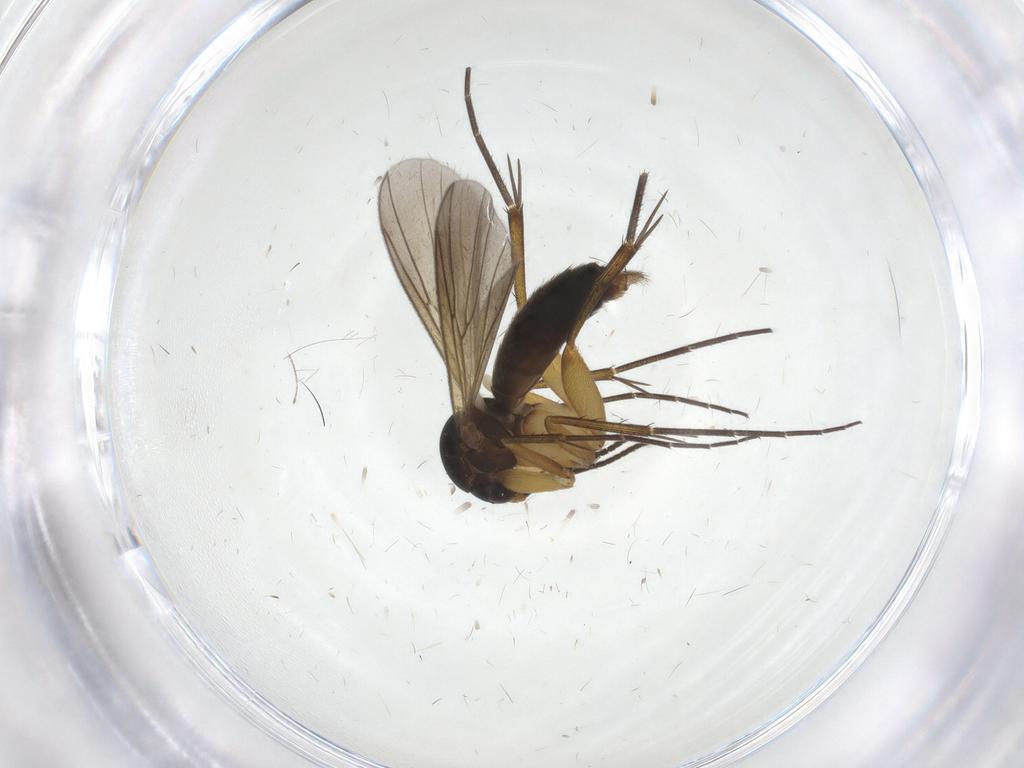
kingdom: Animalia
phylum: Arthropoda
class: Insecta
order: Diptera
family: Mycetophilidae
